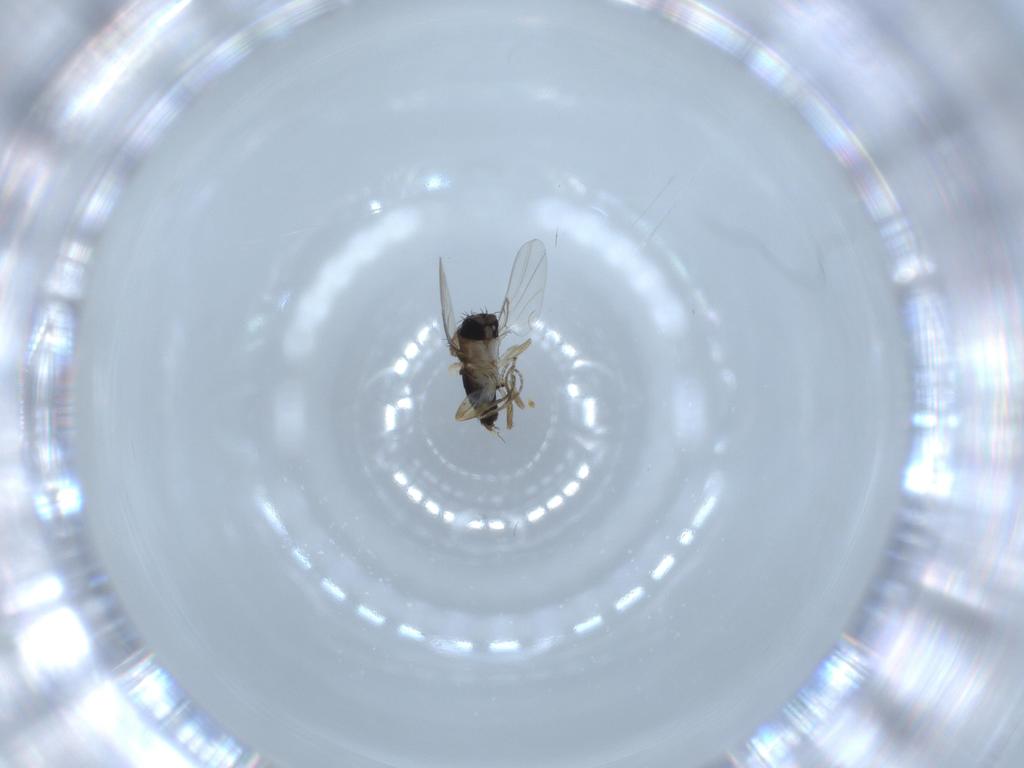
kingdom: Animalia
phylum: Arthropoda
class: Insecta
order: Diptera
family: Phoridae
